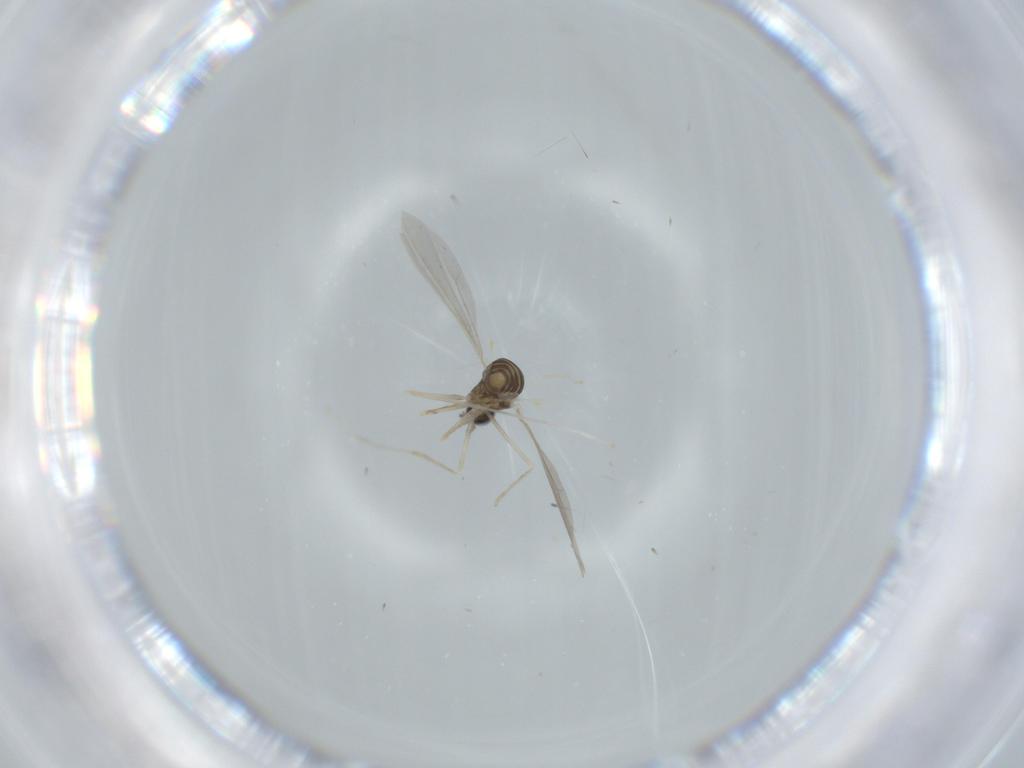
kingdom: Animalia
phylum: Arthropoda
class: Insecta
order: Diptera
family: Cecidomyiidae
